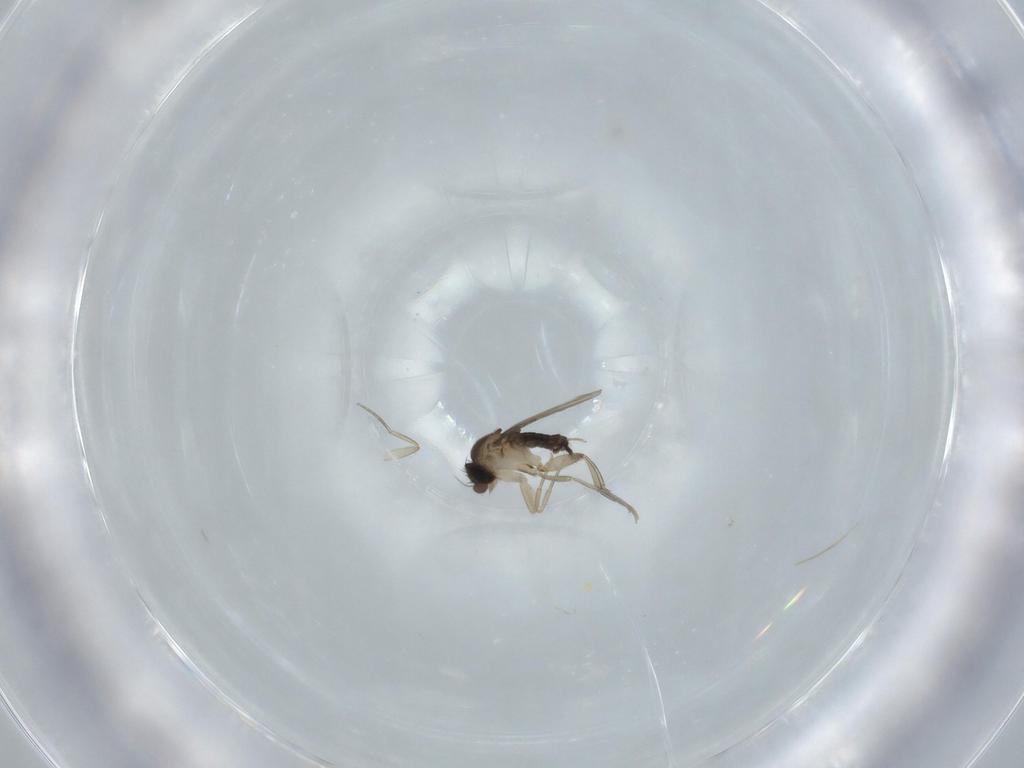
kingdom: Animalia
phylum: Arthropoda
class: Insecta
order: Diptera
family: Phoridae
